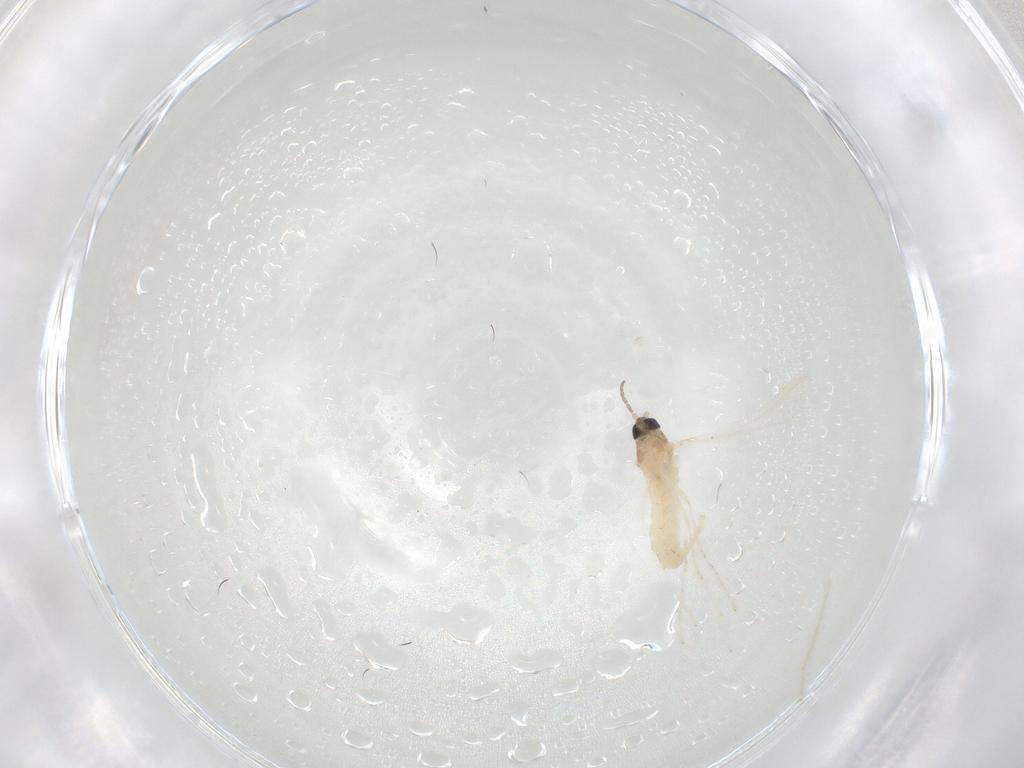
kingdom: Animalia
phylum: Arthropoda
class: Insecta
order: Diptera
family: Cecidomyiidae
